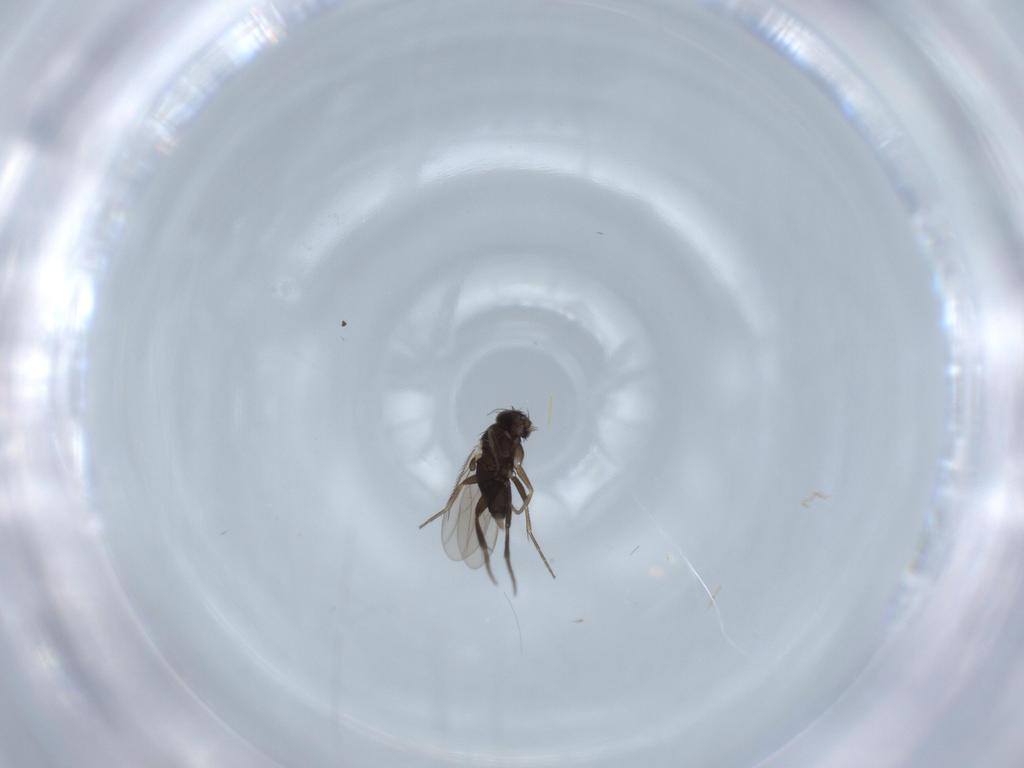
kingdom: Animalia
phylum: Arthropoda
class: Insecta
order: Diptera
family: Phoridae
